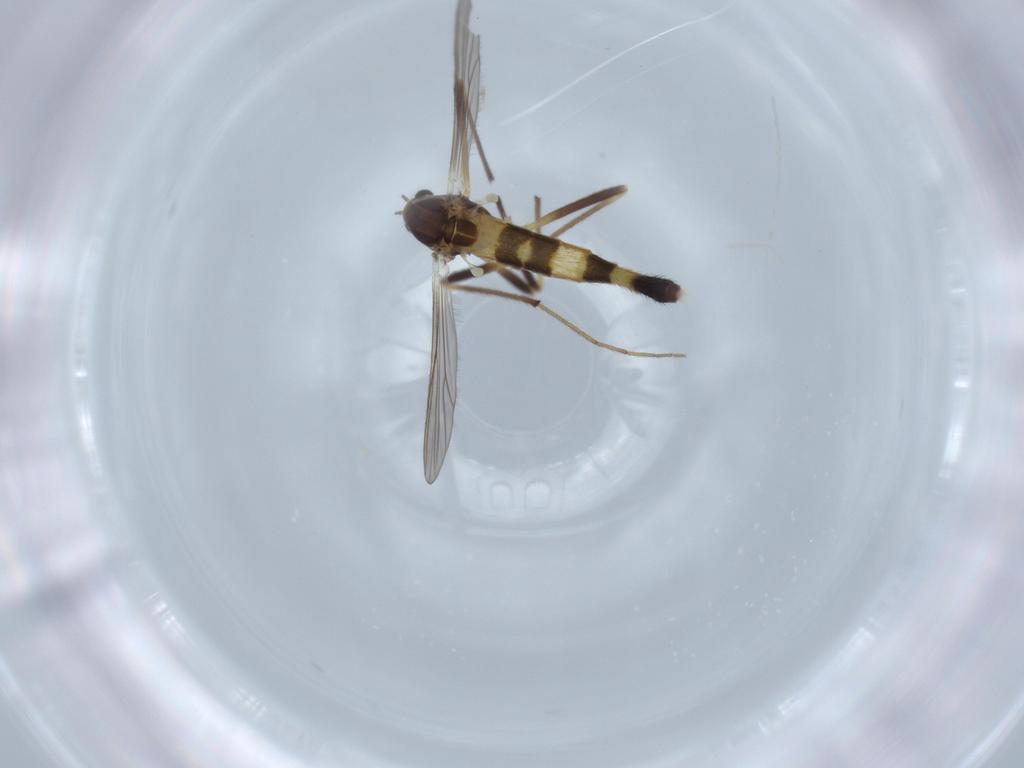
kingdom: Animalia
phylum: Arthropoda
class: Insecta
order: Diptera
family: Chironomidae
